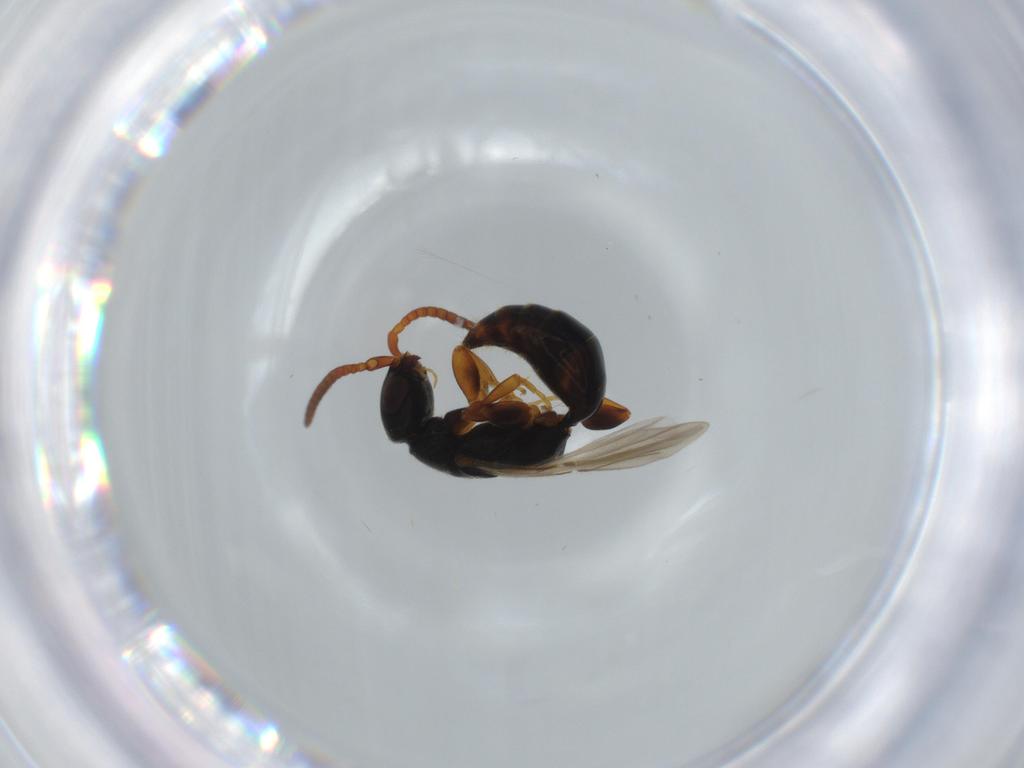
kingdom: Animalia
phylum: Arthropoda
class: Insecta
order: Hymenoptera
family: Bethylidae
